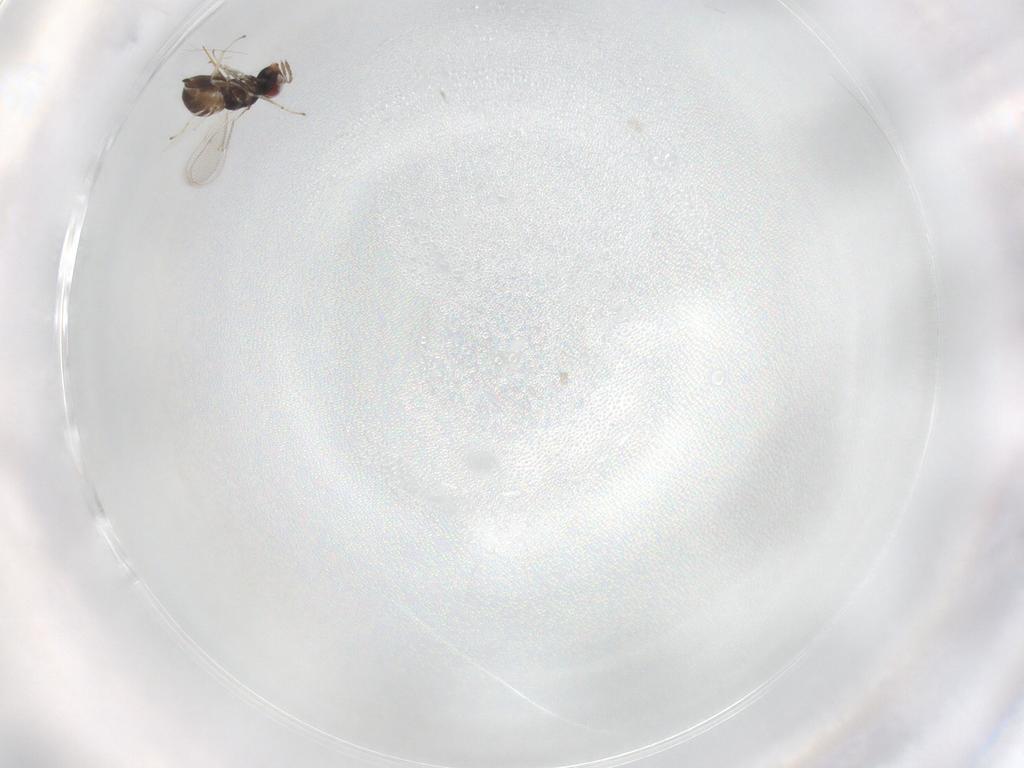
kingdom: Animalia
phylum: Arthropoda
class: Insecta
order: Hymenoptera
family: Eulophidae
